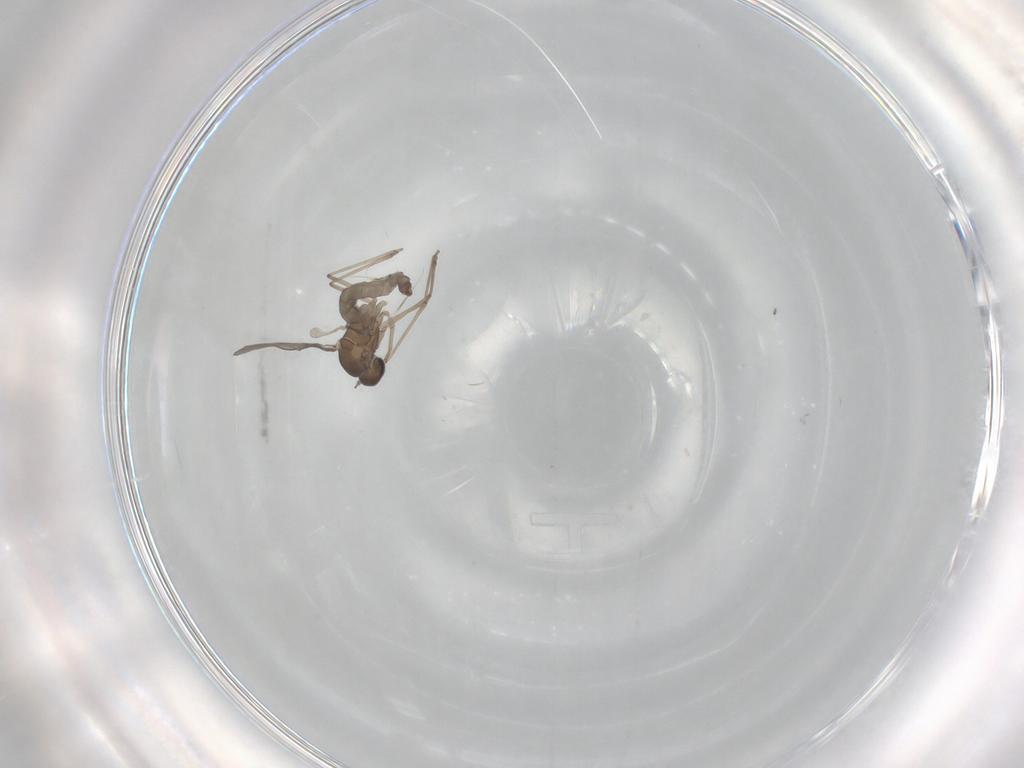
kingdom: Animalia
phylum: Arthropoda
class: Insecta
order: Diptera
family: Cecidomyiidae
